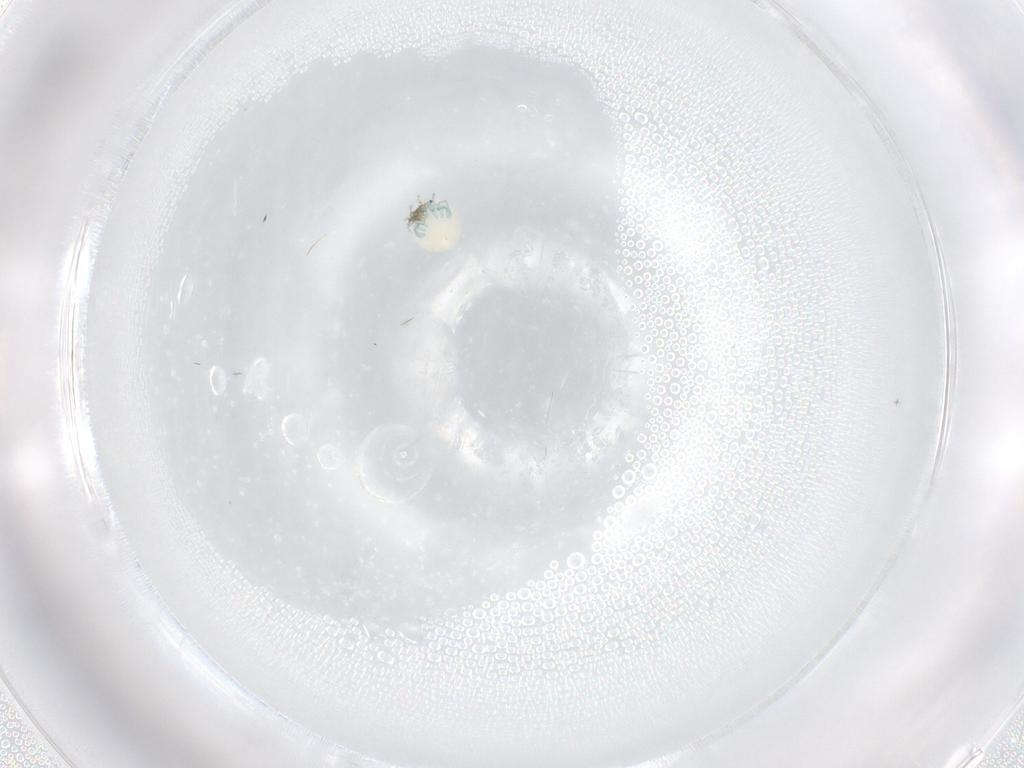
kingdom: Animalia
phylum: Arthropoda
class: Arachnida
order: Trombidiformes
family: Arrenuridae
